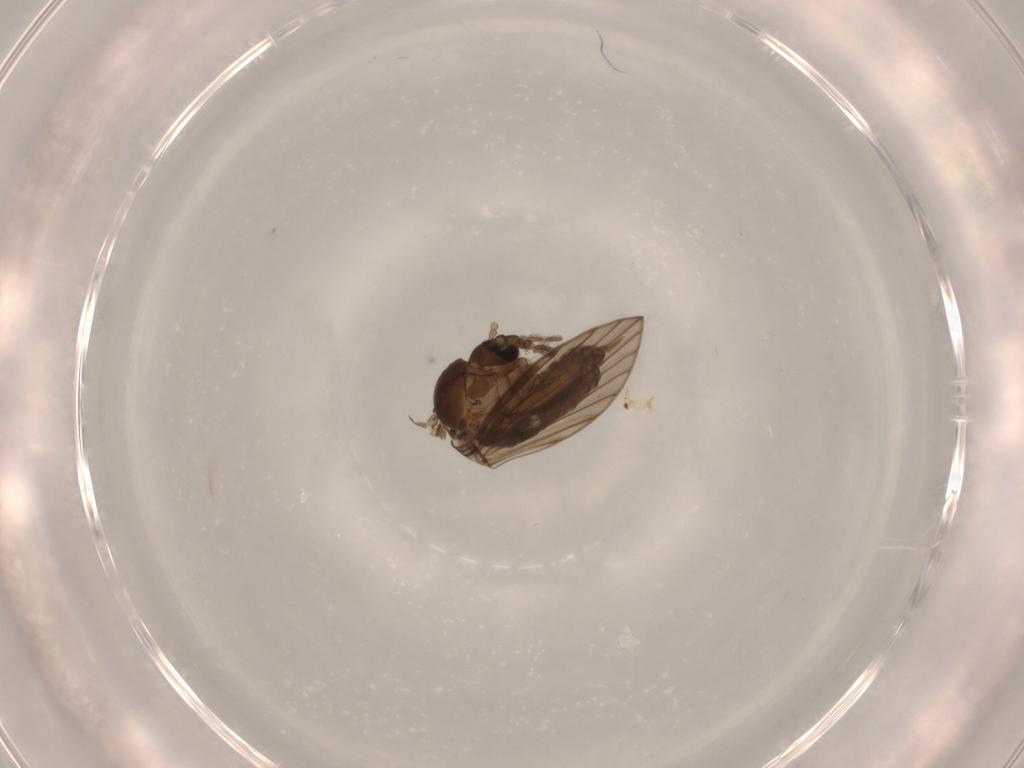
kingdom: Animalia
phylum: Arthropoda
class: Insecta
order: Diptera
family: Psychodidae
